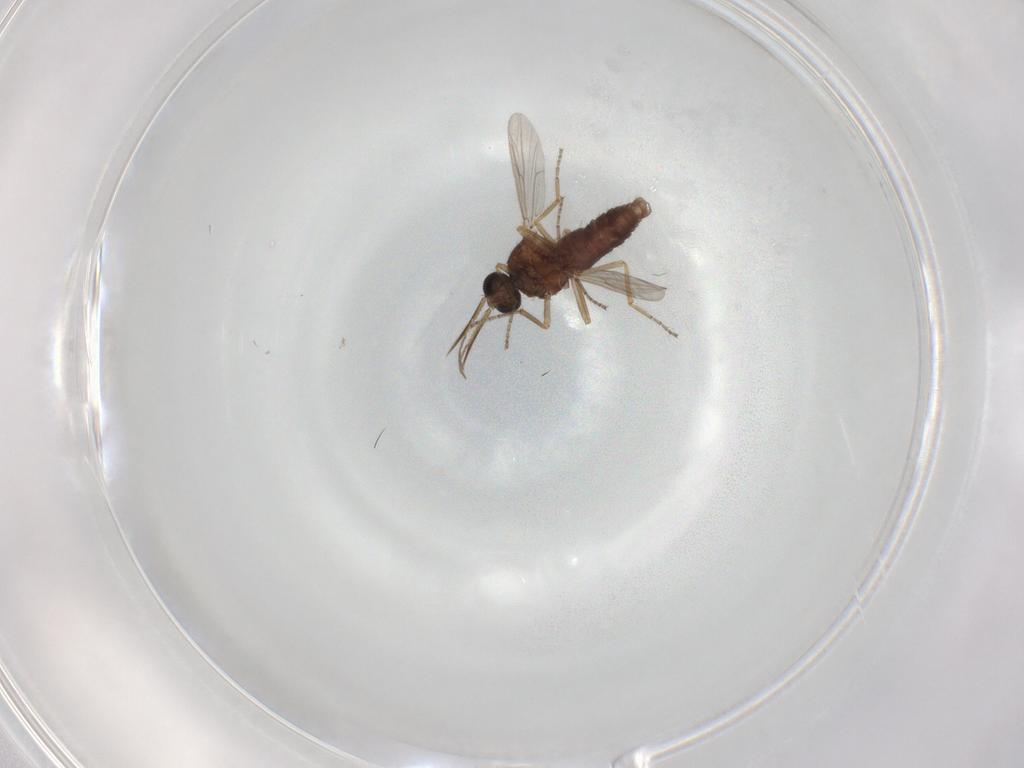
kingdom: Animalia
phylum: Arthropoda
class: Insecta
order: Diptera
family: Ceratopogonidae
